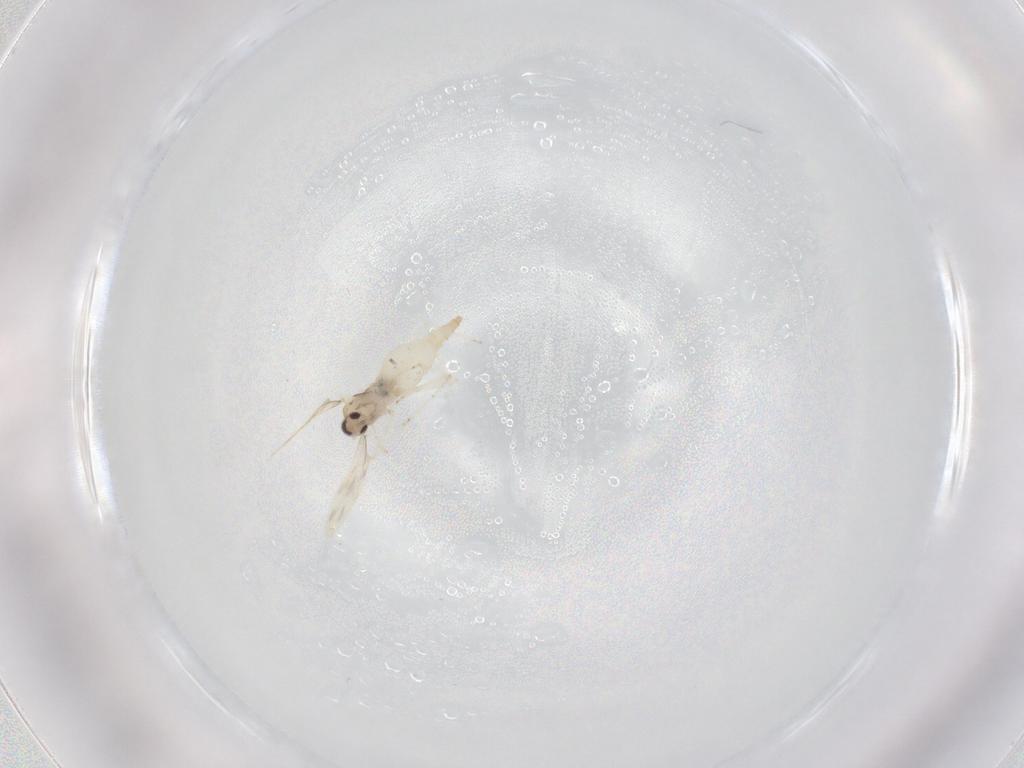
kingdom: Animalia
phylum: Arthropoda
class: Insecta
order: Diptera
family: Cecidomyiidae
